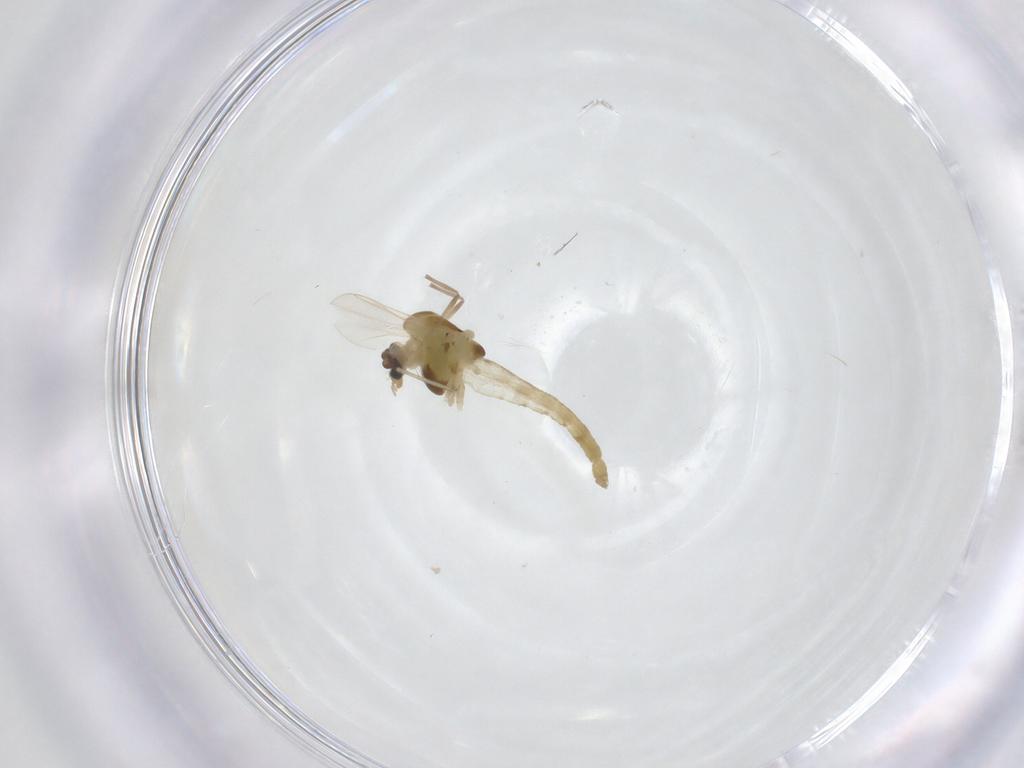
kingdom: Animalia
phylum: Arthropoda
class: Insecta
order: Diptera
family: Chironomidae
